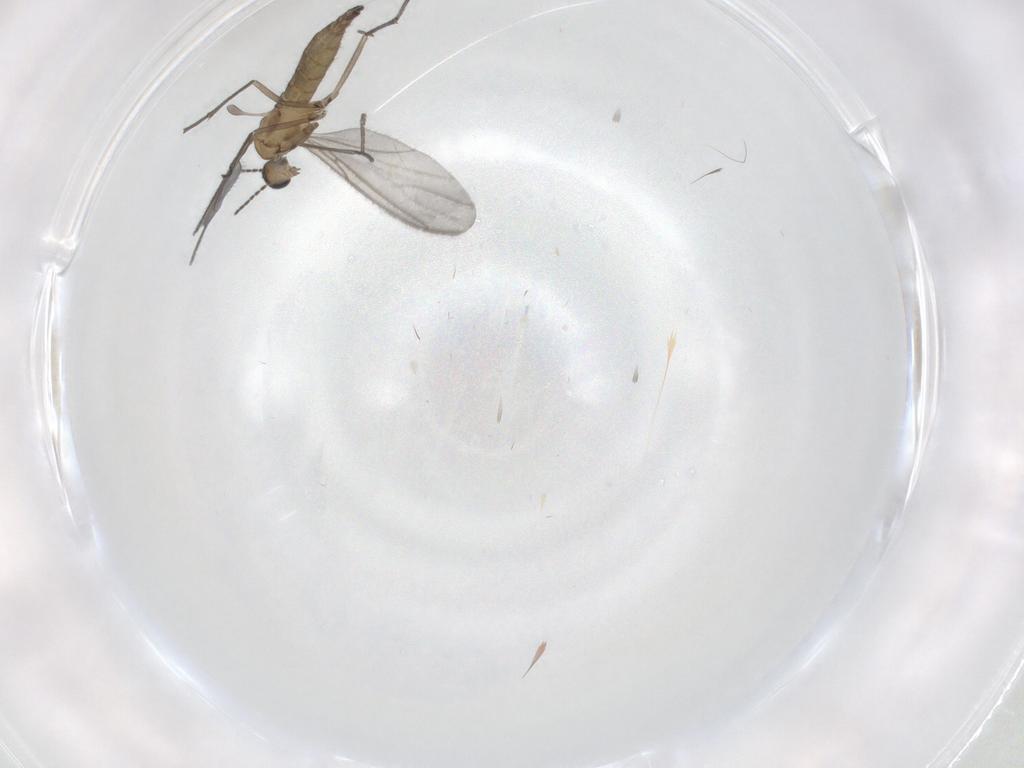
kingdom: Animalia
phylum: Arthropoda
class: Insecta
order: Diptera
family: Sciaridae
